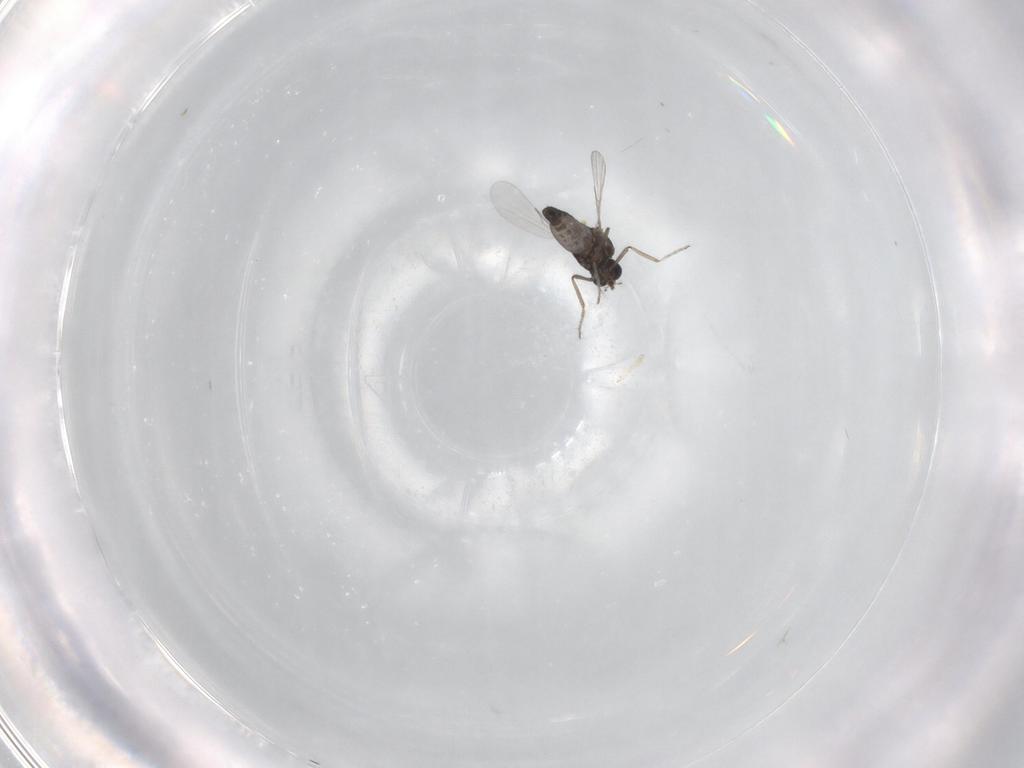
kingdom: Animalia
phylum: Arthropoda
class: Insecta
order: Diptera
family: Ceratopogonidae
